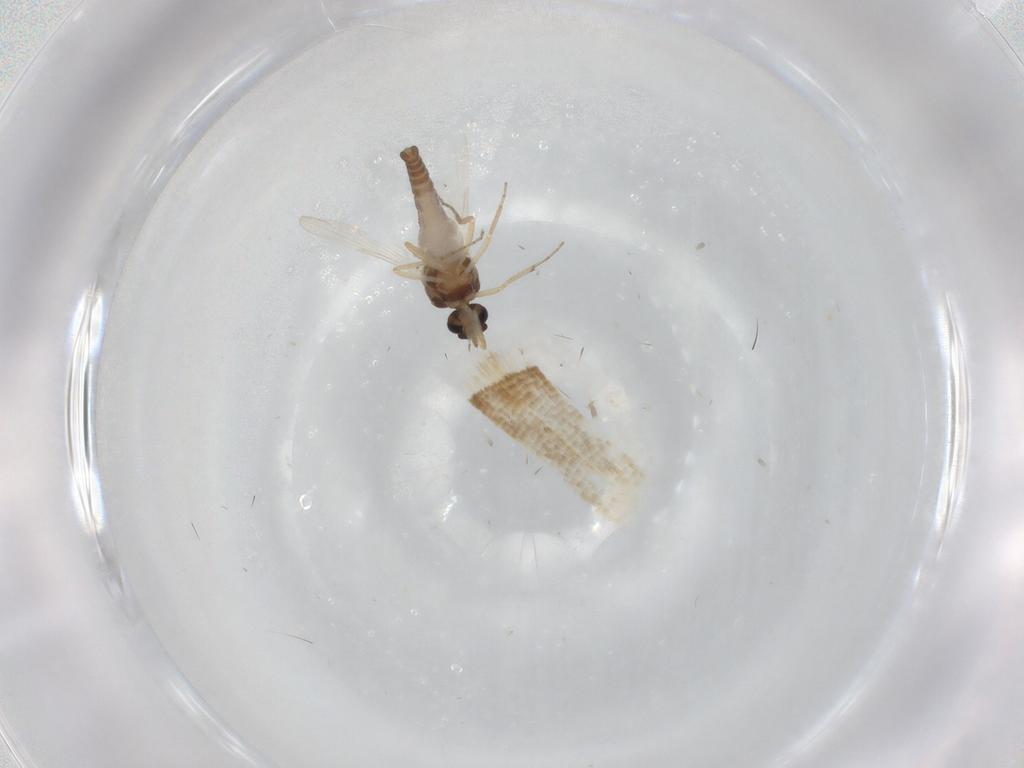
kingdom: Animalia
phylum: Arthropoda
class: Insecta
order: Diptera
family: Ceratopogonidae
